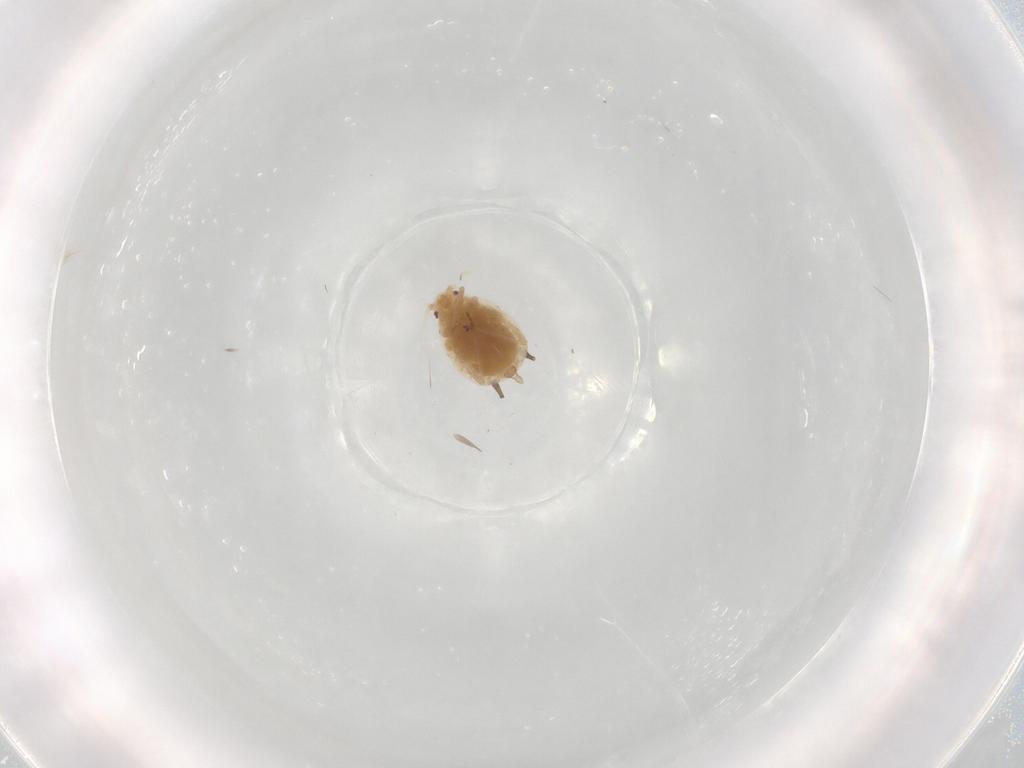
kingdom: Animalia
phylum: Arthropoda
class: Insecta
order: Hemiptera
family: Aphididae
